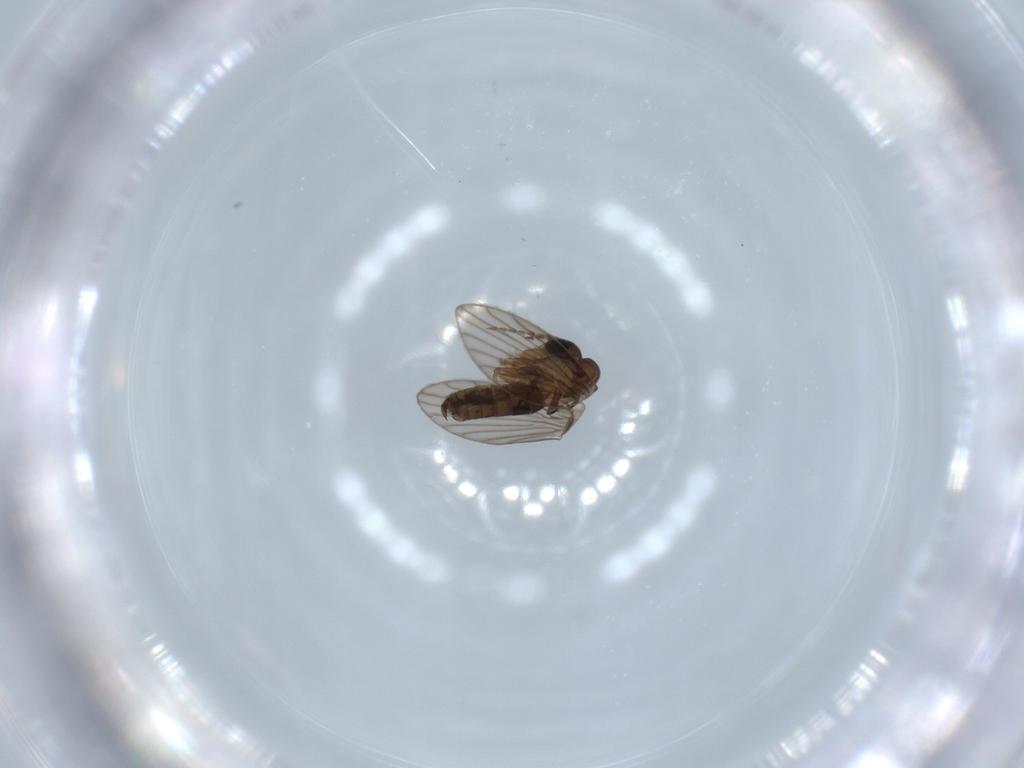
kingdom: Animalia
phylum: Arthropoda
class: Insecta
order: Diptera
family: Psychodidae
